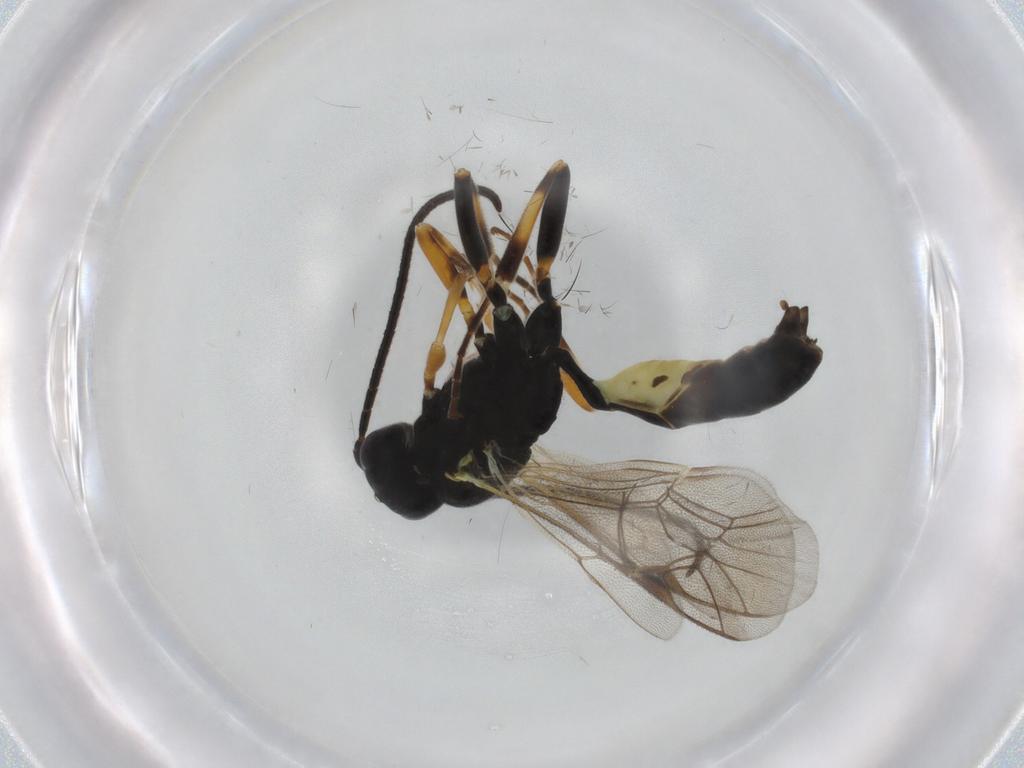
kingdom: Animalia
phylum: Arthropoda
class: Insecta
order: Hymenoptera
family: Ichneumonidae
